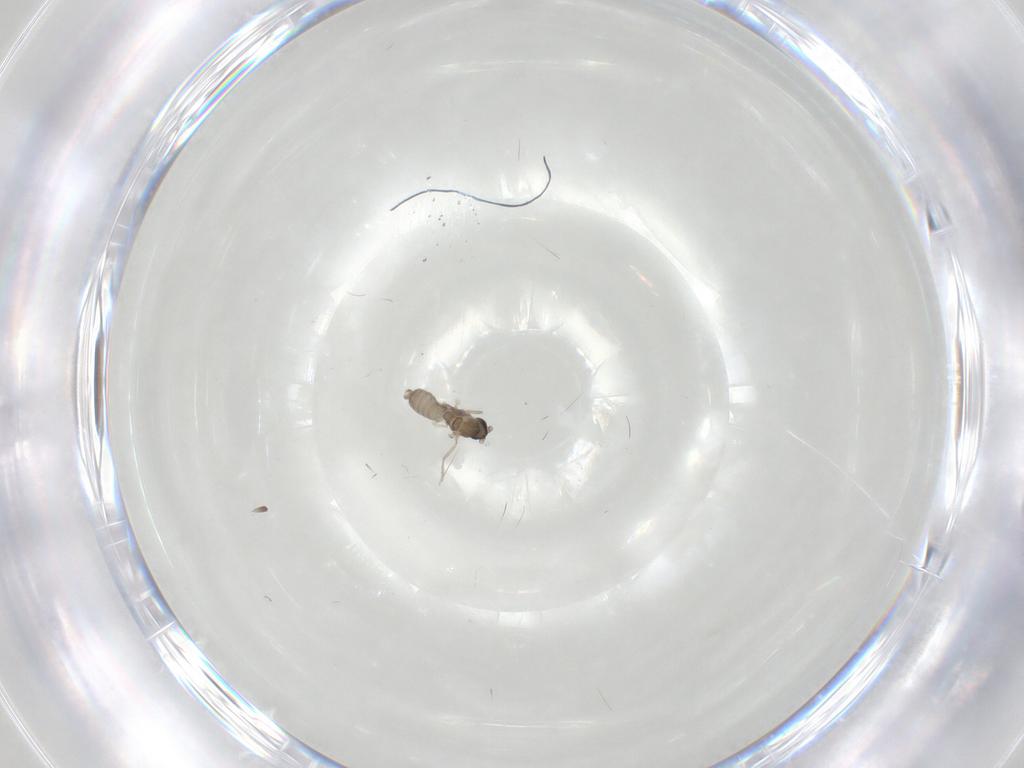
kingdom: Animalia
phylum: Arthropoda
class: Insecta
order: Diptera
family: Cecidomyiidae
